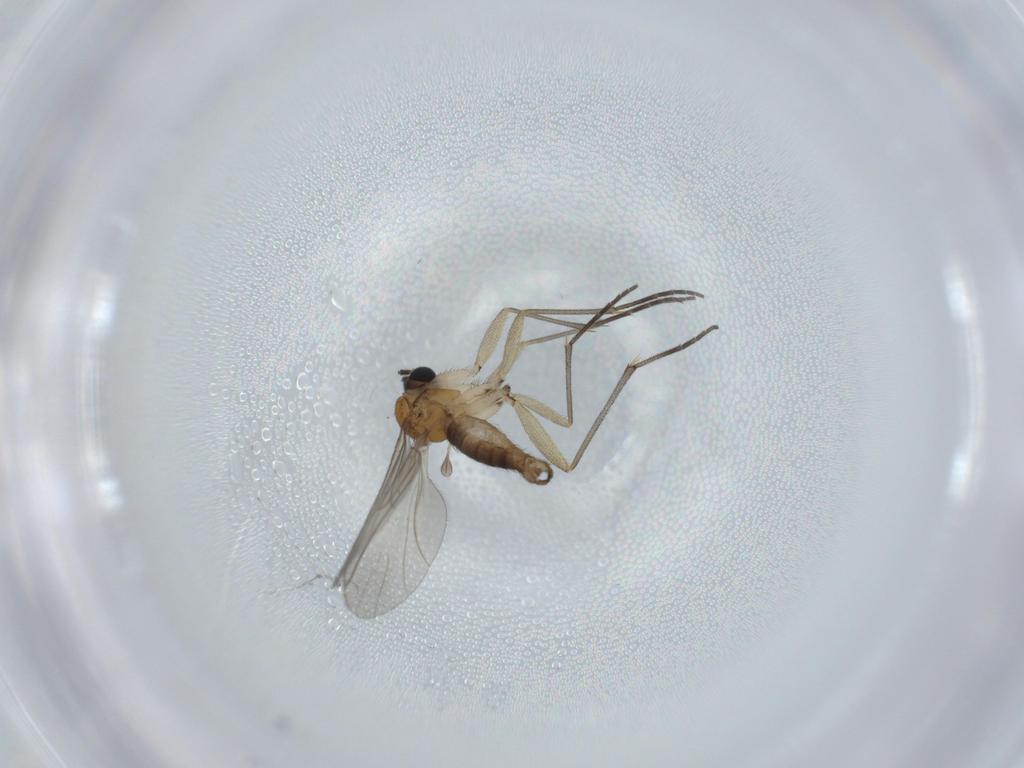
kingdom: Animalia
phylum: Arthropoda
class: Insecta
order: Diptera
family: Sciaridae
